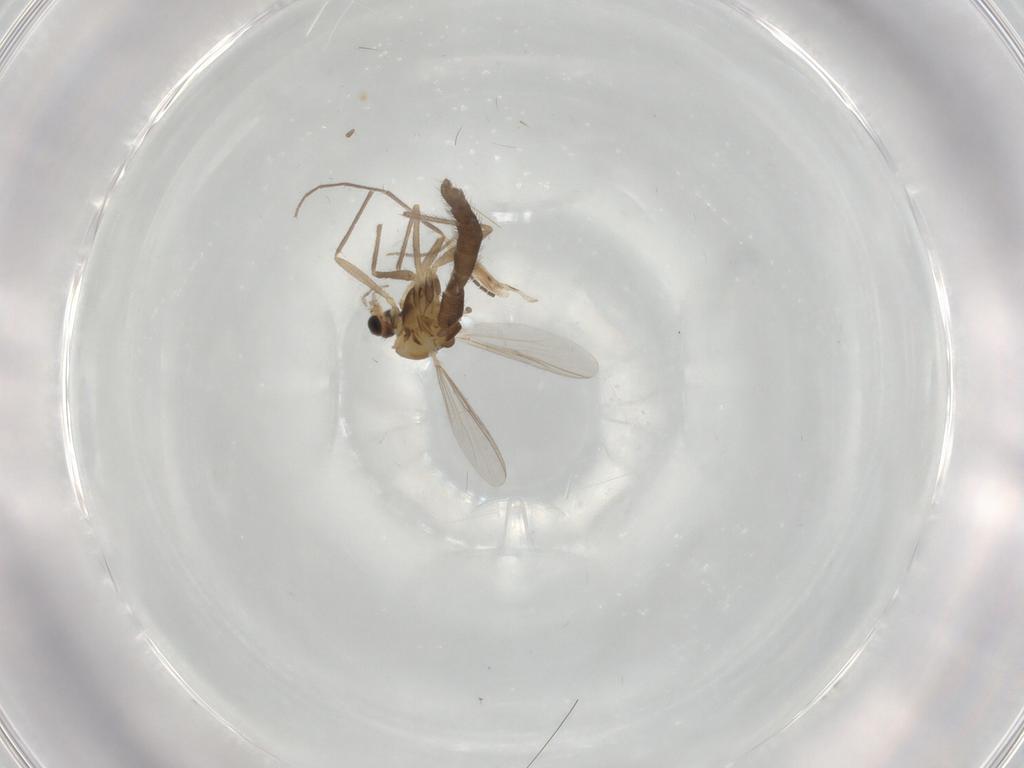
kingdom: Animalia
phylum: Arthropoda
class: Insecta
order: Diptera
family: Chironomidae
